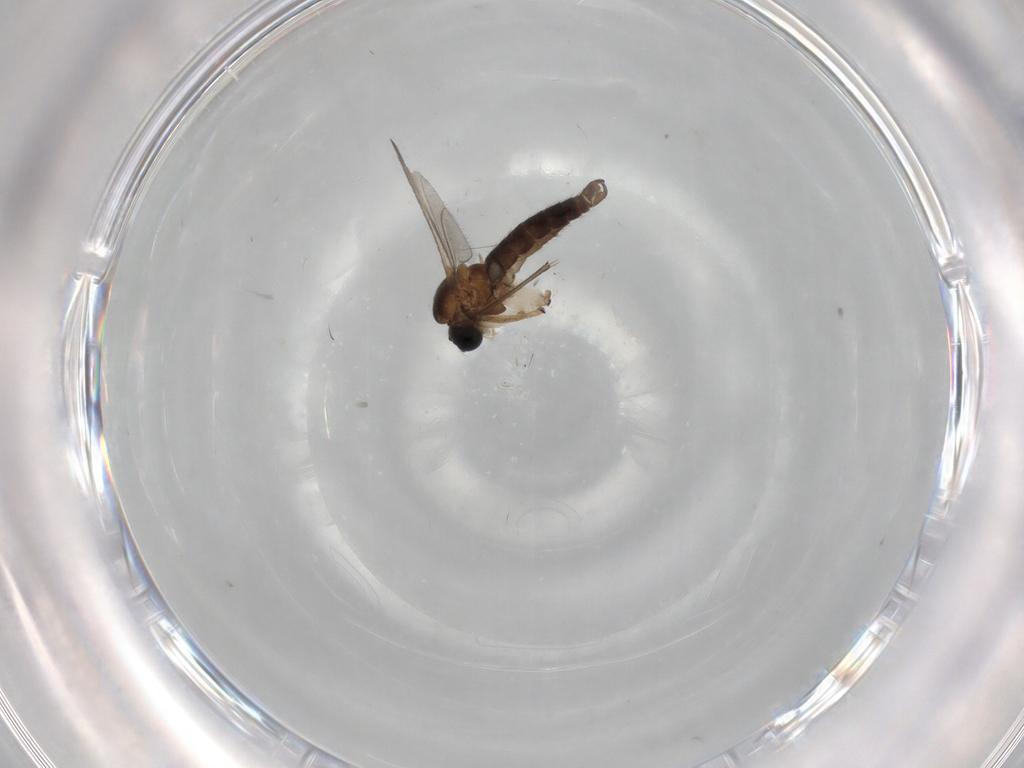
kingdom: Animalia
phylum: Arthropoda
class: Insecta
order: Diptera
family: Sciaridae
